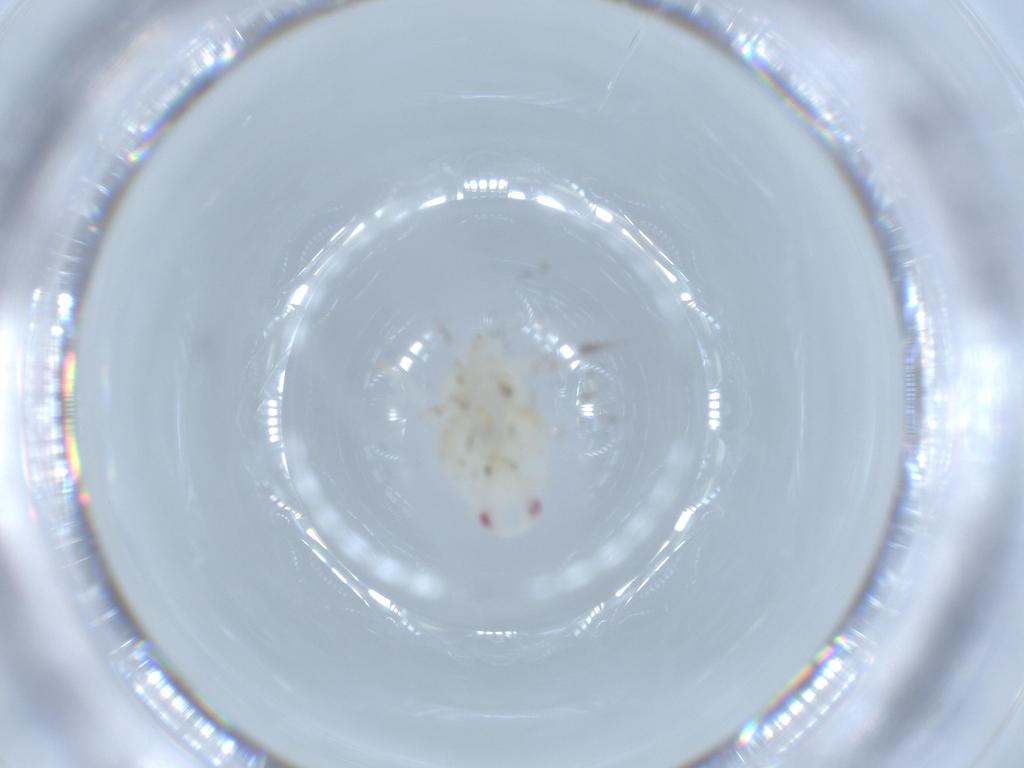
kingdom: Animalia
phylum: Arthropoda
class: Insecta
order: Hemiptera
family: Flatidae
